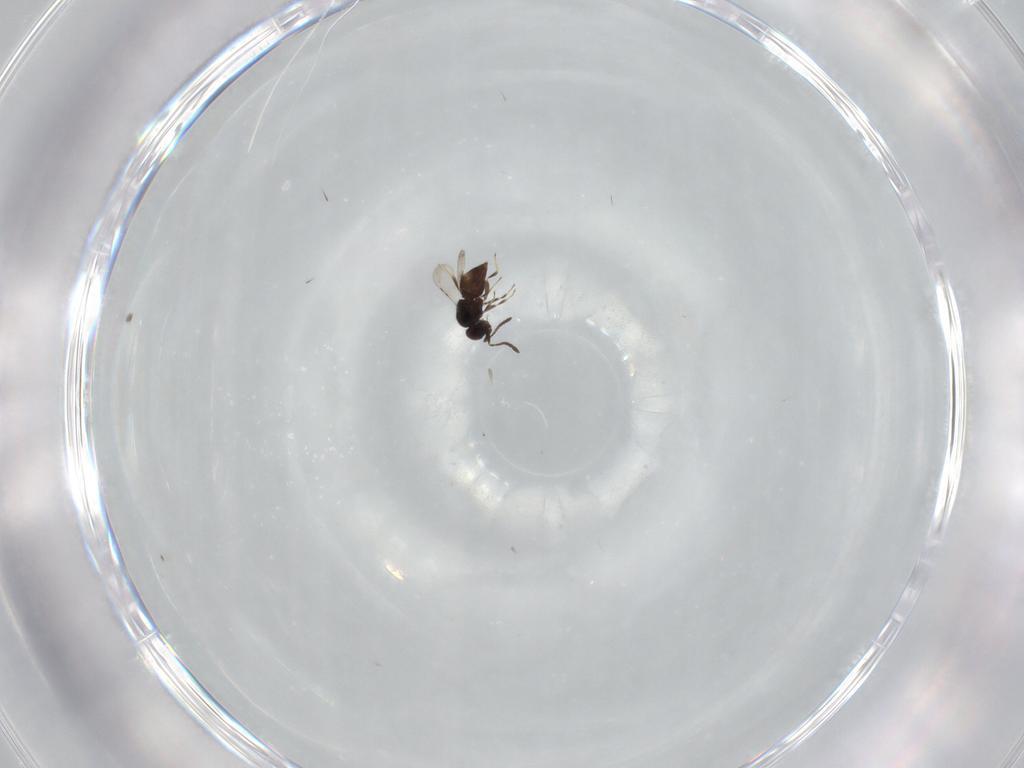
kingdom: Animalia
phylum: Arthropoda
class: Insecta
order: Hymenoptera
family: Ceraphronidae
